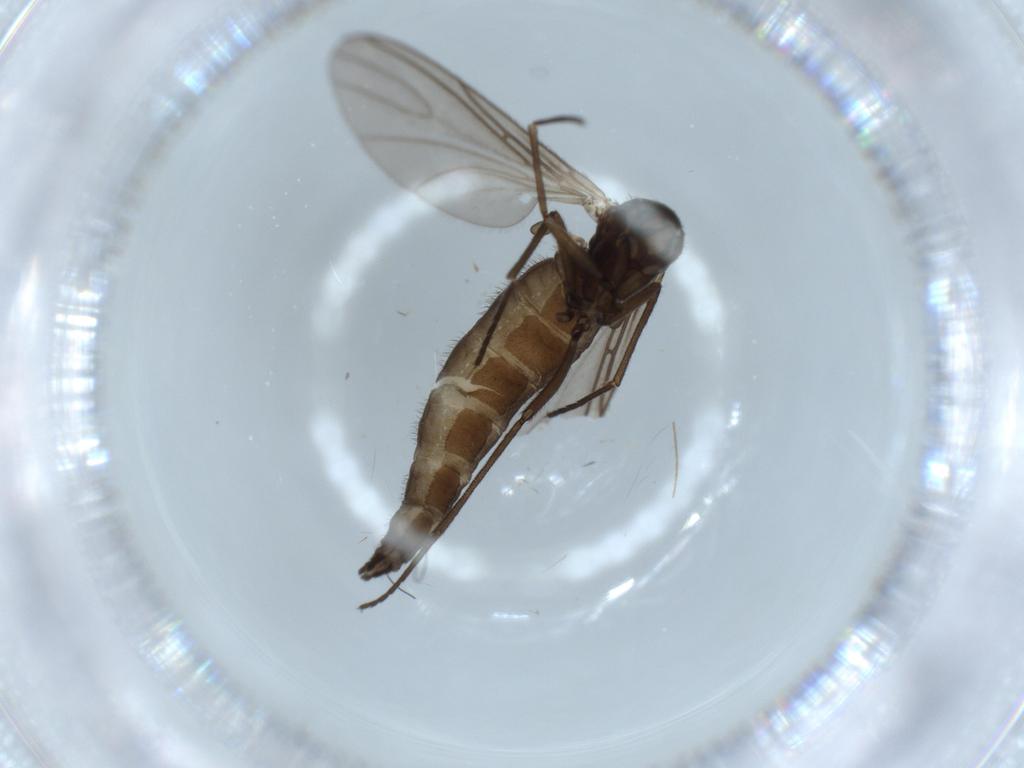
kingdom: Animalia
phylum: Arthropoda
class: Insecta
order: Diptera
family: Sciaridae
